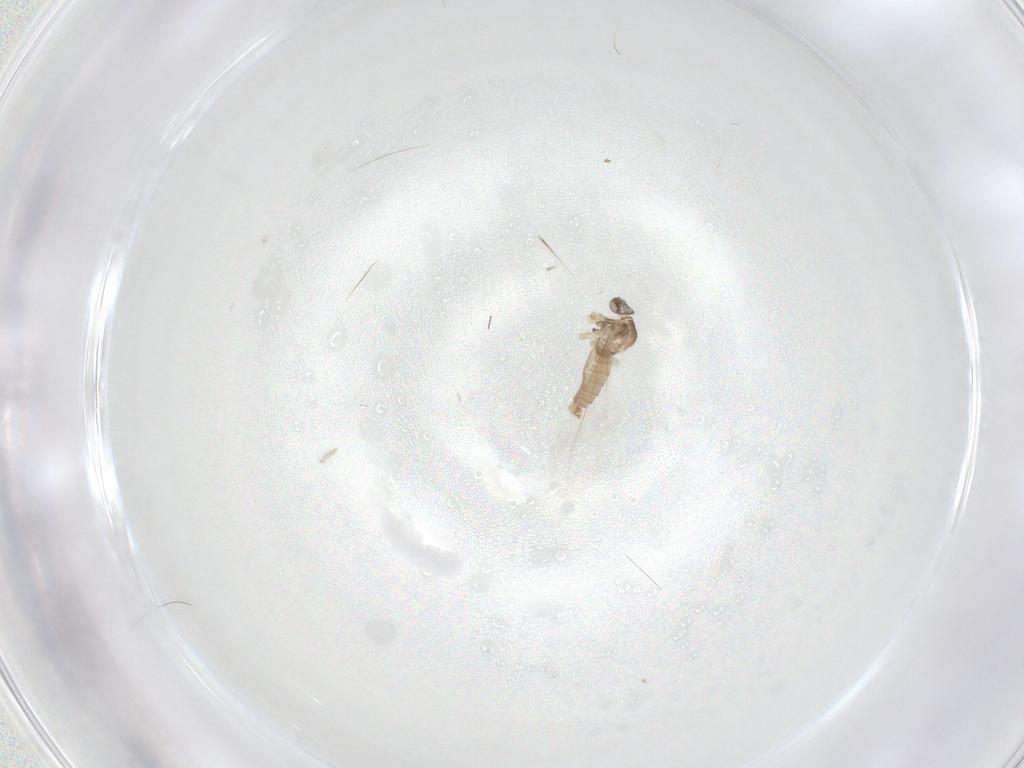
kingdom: Animalia
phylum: Arthropoda
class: Insecta
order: Diptera
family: Cecidomyiidae
